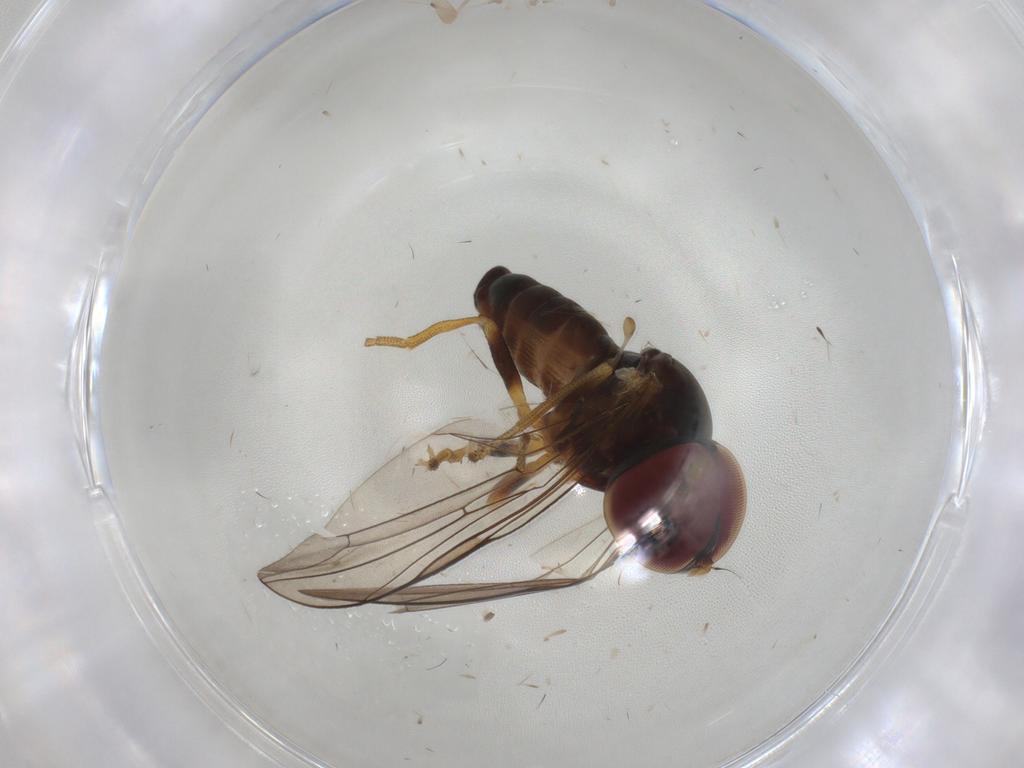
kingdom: Animalia
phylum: Arthropoda
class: Insecta
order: Diptera
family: Pipunculidae
